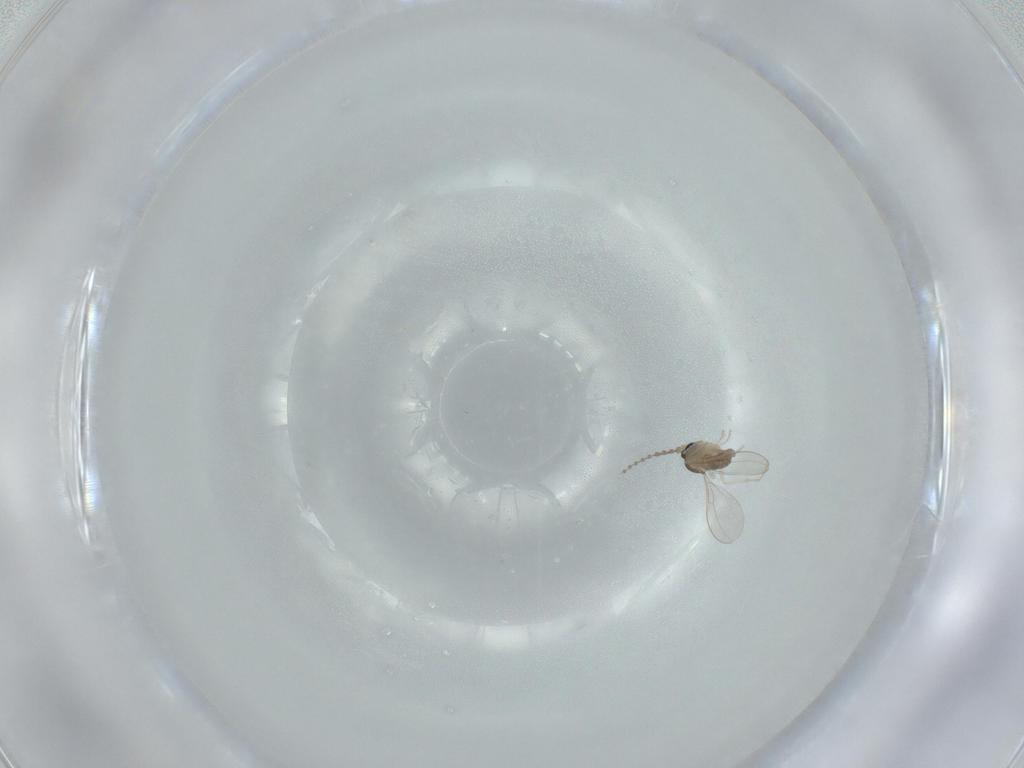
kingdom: Animalia
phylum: Arthropoda
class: Insecta
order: Diptera
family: Cecidomyiidae
